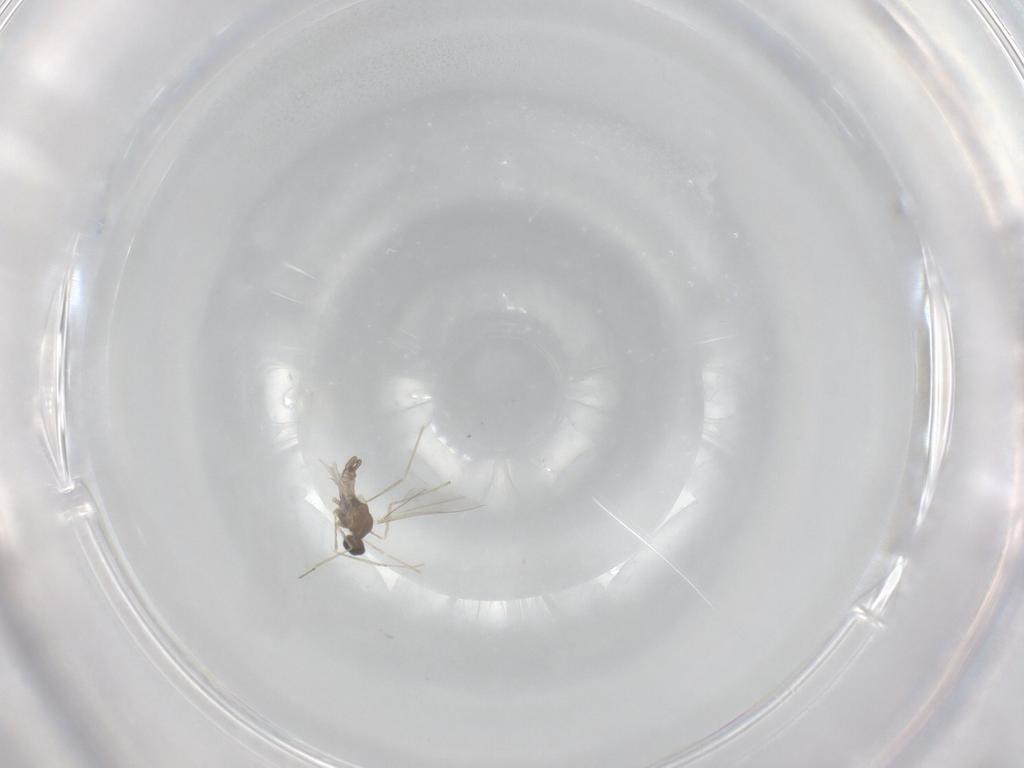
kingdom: Animalia
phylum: Arthropoda
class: Insecta
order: Diptera
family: Cecidomyiidae
